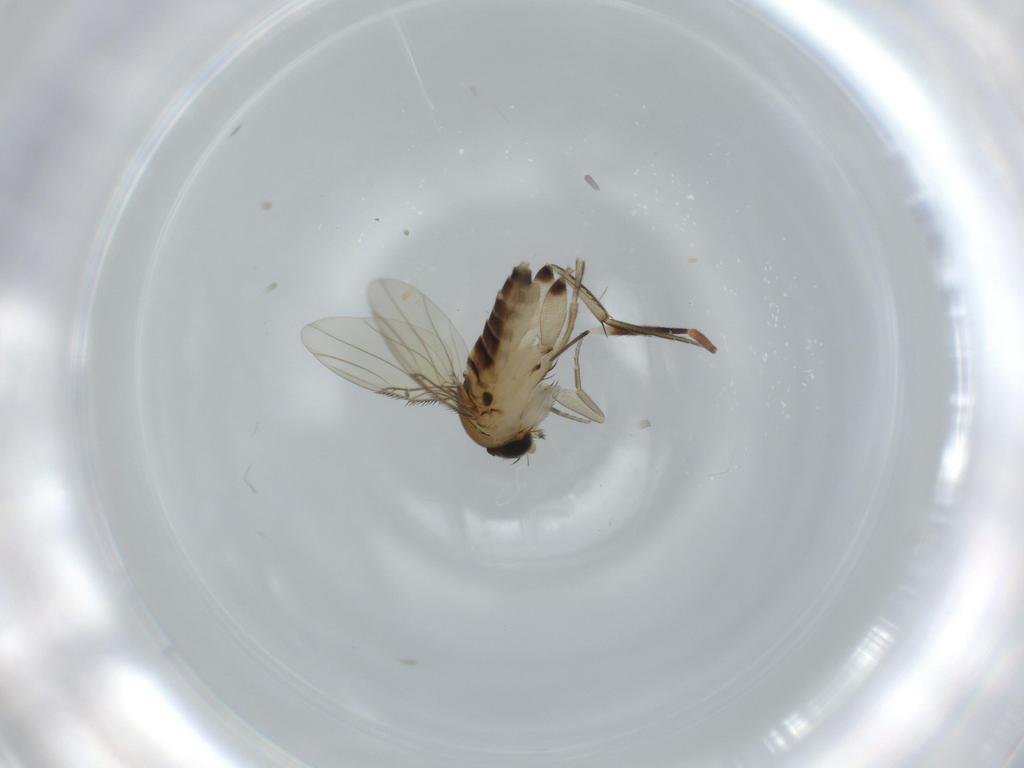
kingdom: Animalia
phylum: Arthropoda
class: Insecta
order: Diptera
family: Phoridae
